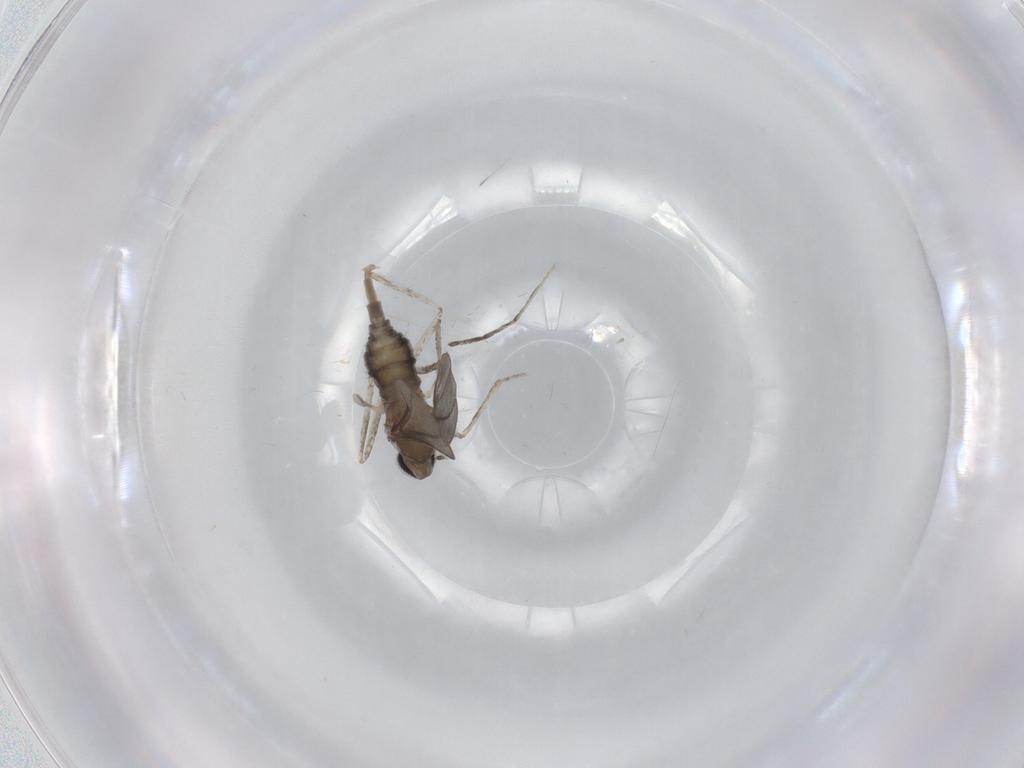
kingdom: Animalia
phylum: Arthropoda
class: Insecta
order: Diptera
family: Cecidomyiidae
